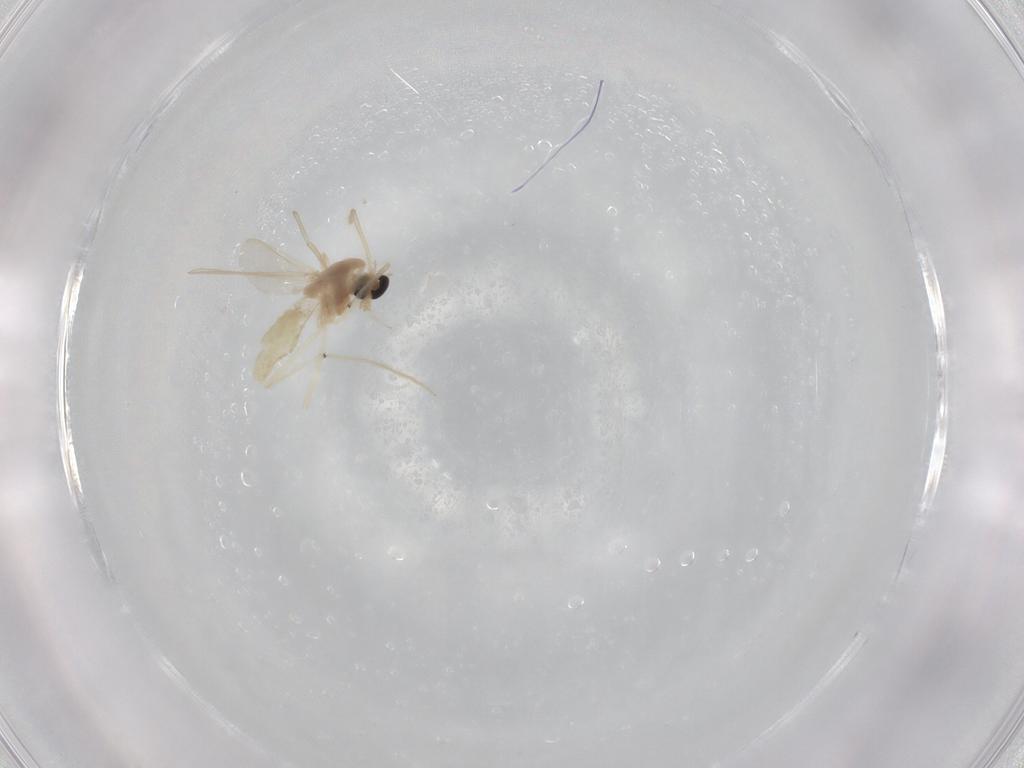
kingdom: Animalia
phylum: Arthropoda
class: Insecta
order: Diptera
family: Chironomidae
